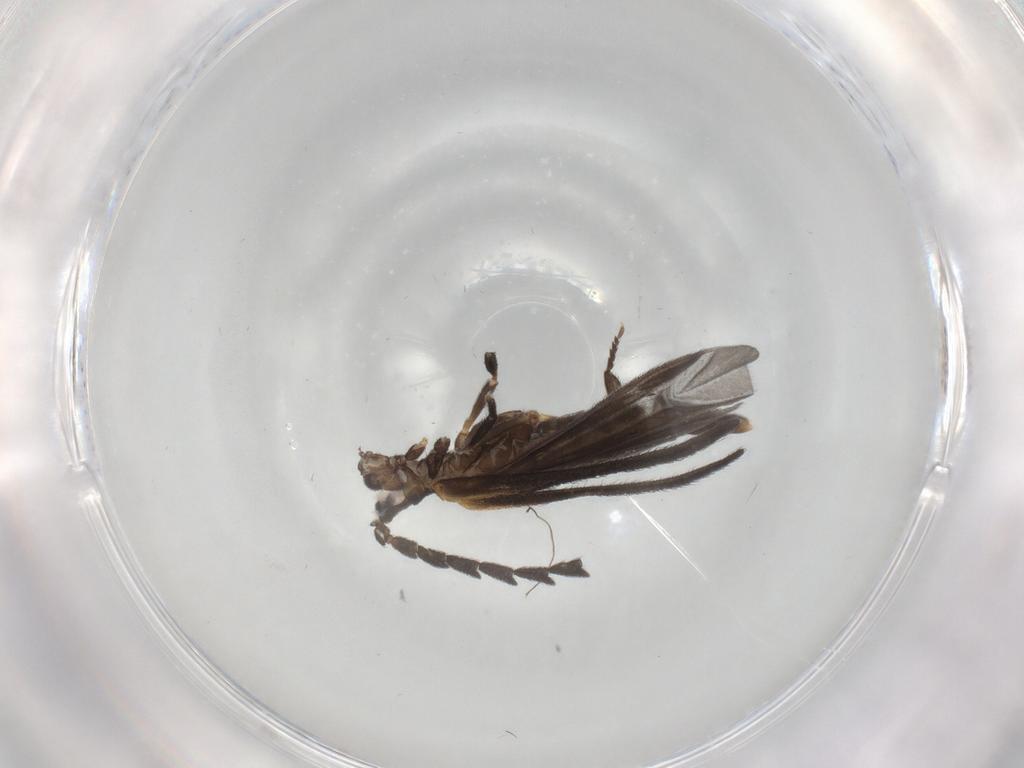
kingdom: Animalia
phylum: Arthropoda
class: Insecta
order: Coleoptera
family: Lycidae
